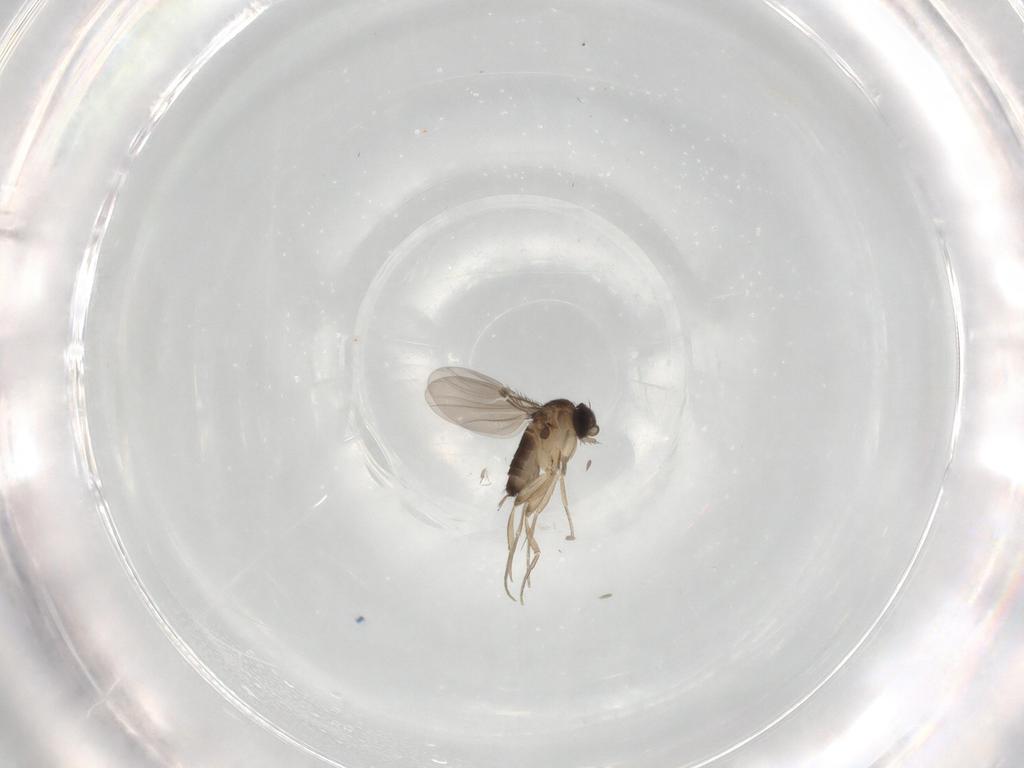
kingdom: Animalia
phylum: Arthropoda
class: Insecta
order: Diptera
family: Phoridae
